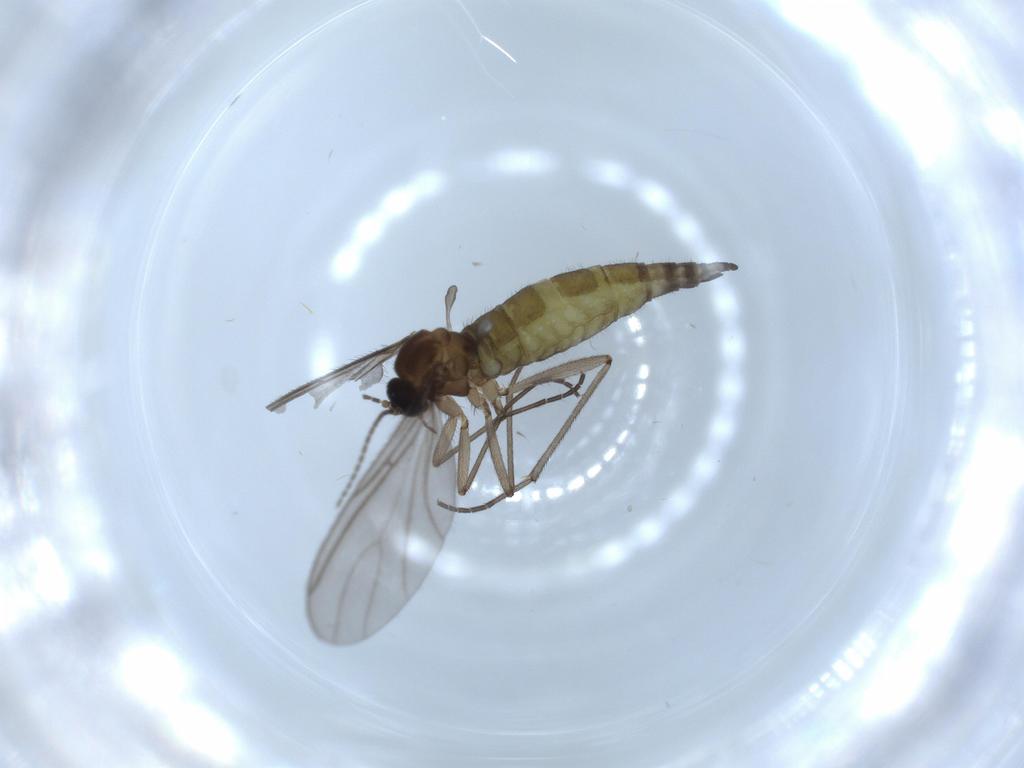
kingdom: Animalia
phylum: Arthropoda
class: Insecta
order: Diptera
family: Sciaridae
